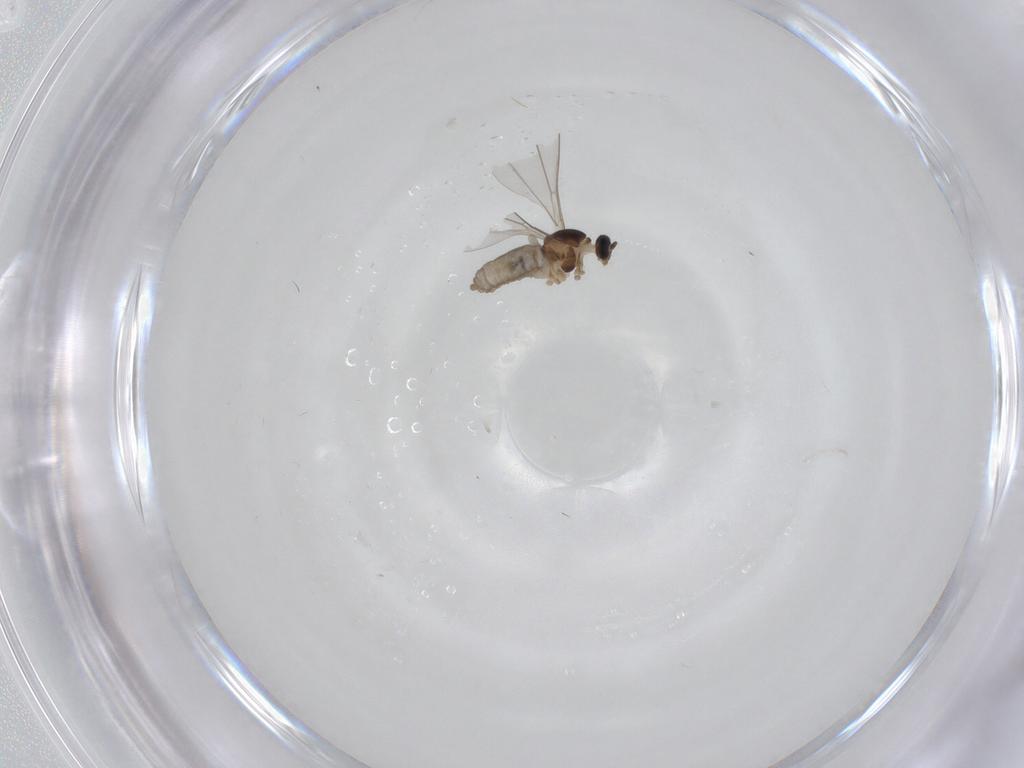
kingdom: Animalia
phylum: Arthropoda
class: Insecta
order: Diptera
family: Cecidomyiidae
